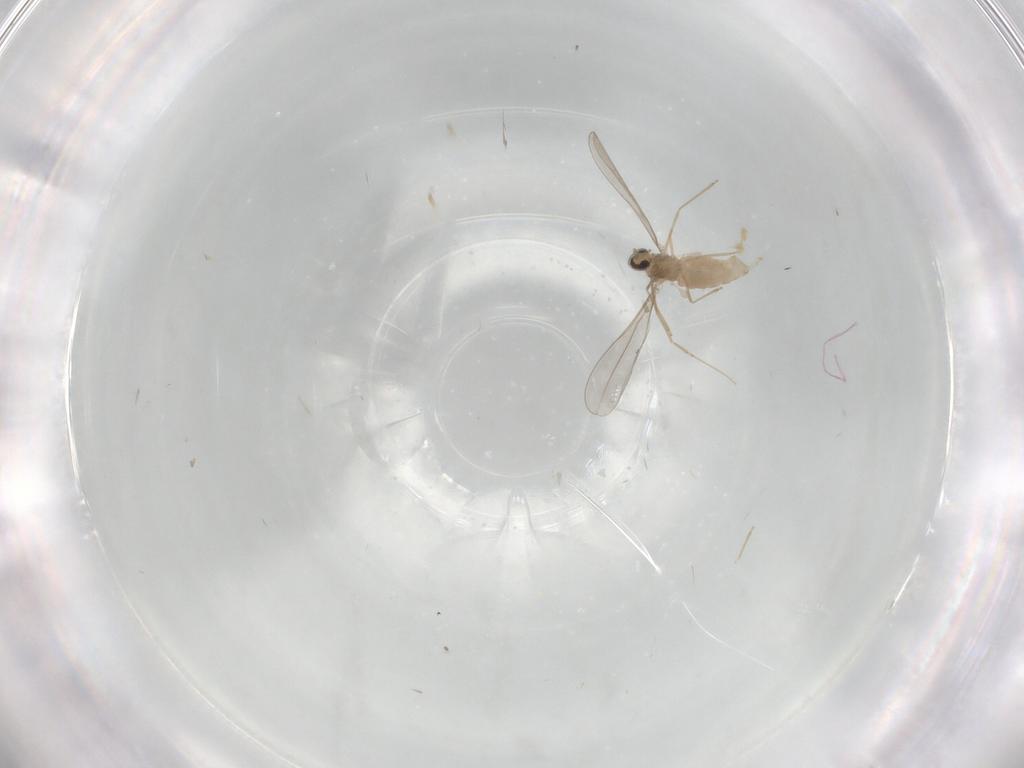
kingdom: Animalia
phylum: Arthropoda
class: Insecta
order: Diptera
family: Cecidomyiidae
